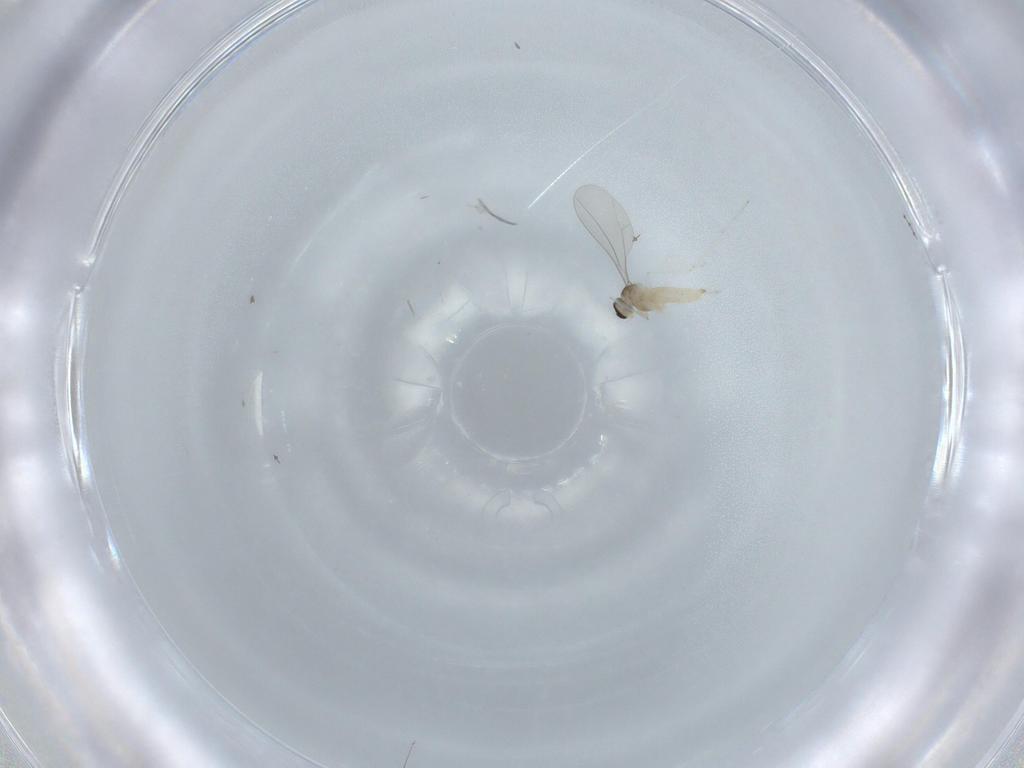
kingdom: Animalia
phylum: Arthropoda
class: Insecta
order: Diptera
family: Cecidomyiidae
